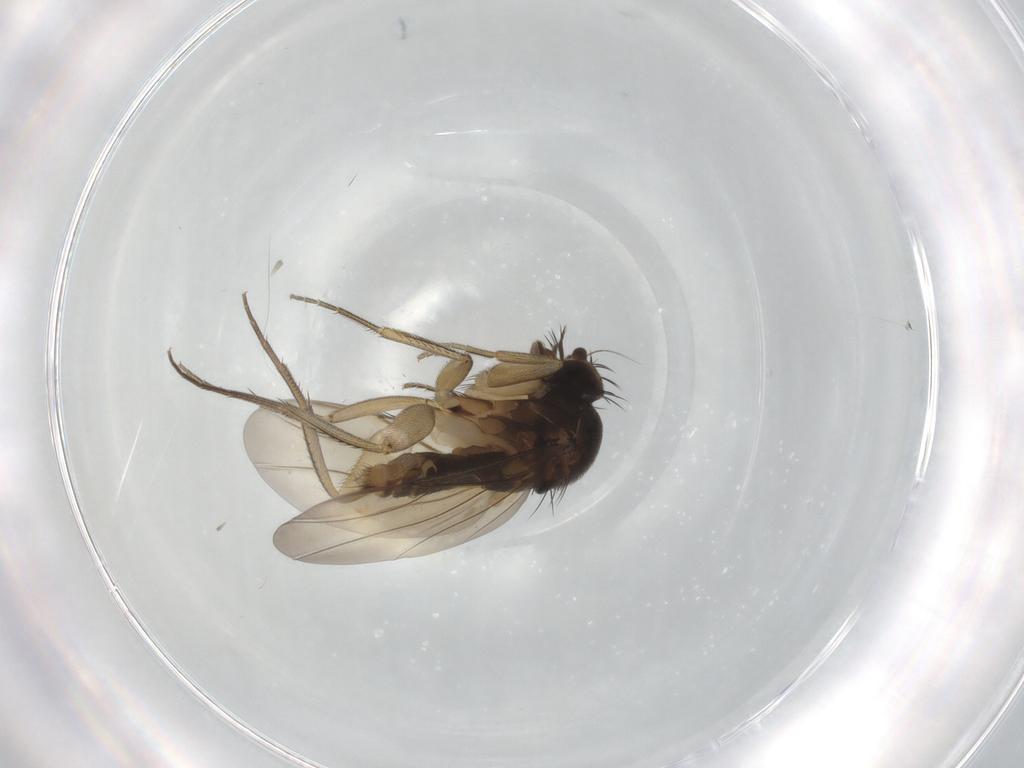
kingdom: Animalia
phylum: Arthropoda
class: Insecta
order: Diptera
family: Phoridae
